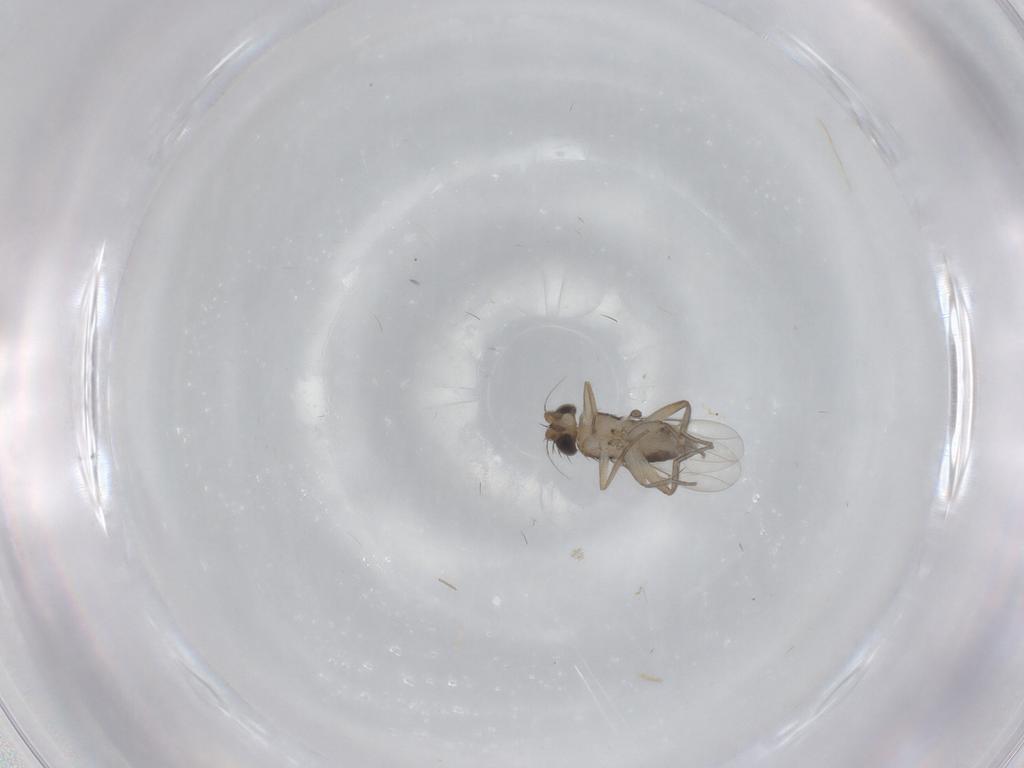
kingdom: Animalia
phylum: Arthropoda
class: Insecta
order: Diptera
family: Phoridae
